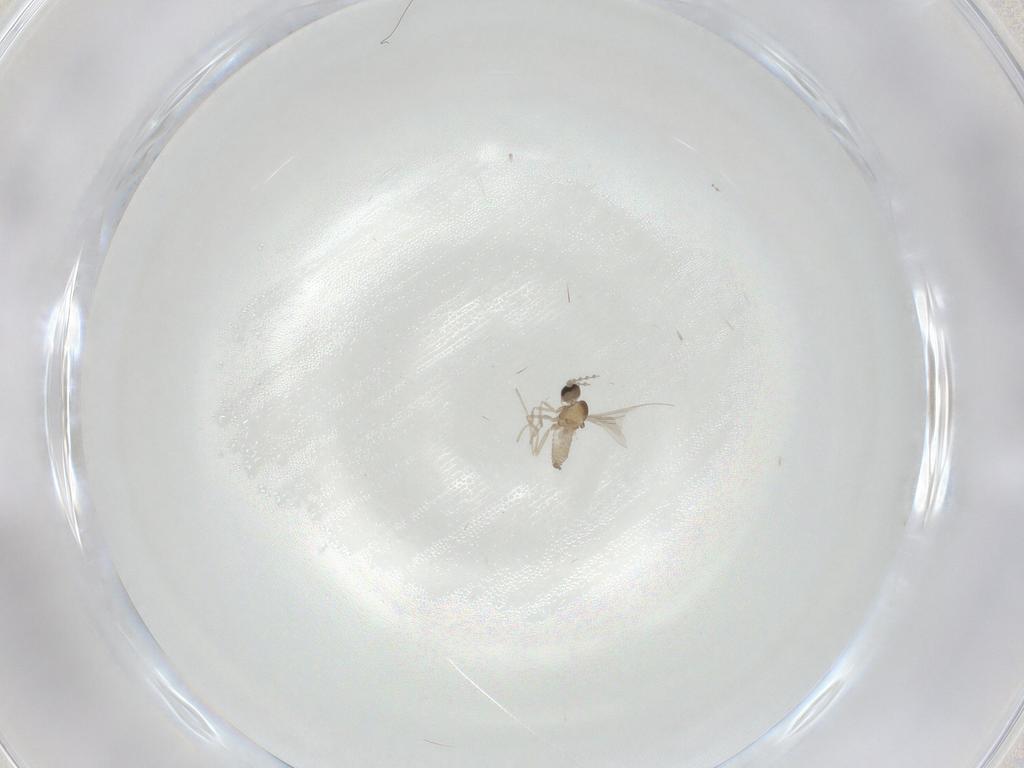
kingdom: Animalia
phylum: Arthropoda
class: Insecta
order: Diptera
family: Cecidomyiidae
